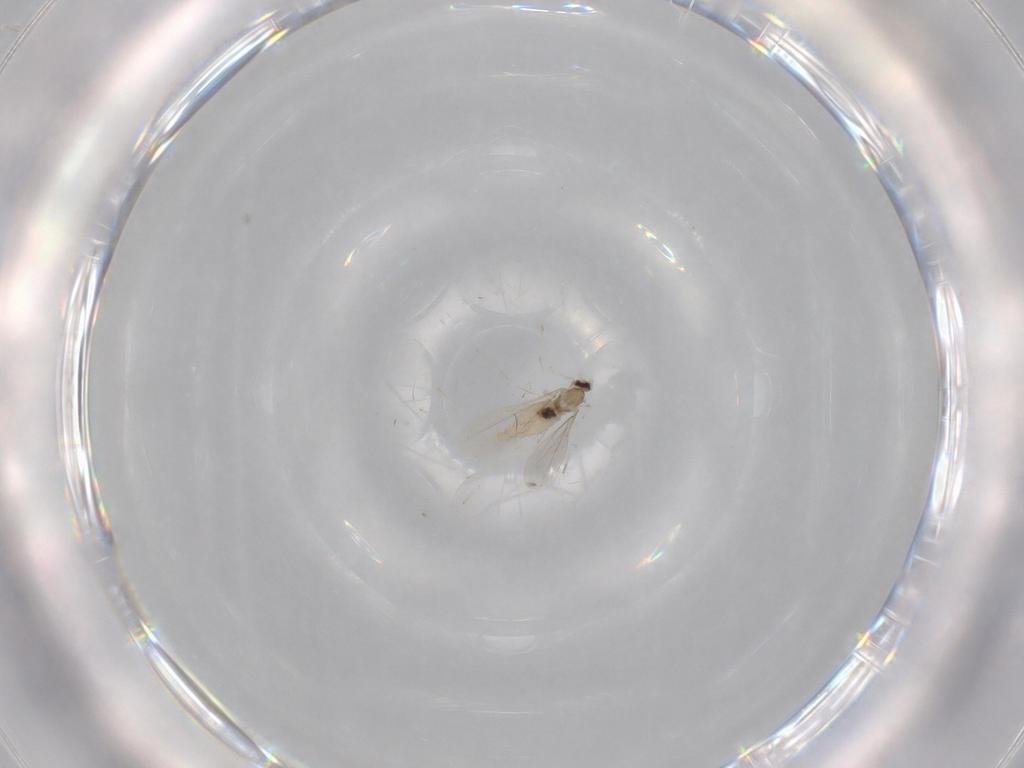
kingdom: Animalia
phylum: Arthropoda
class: Insecta
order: Diptera
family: Cecidomyiidae
